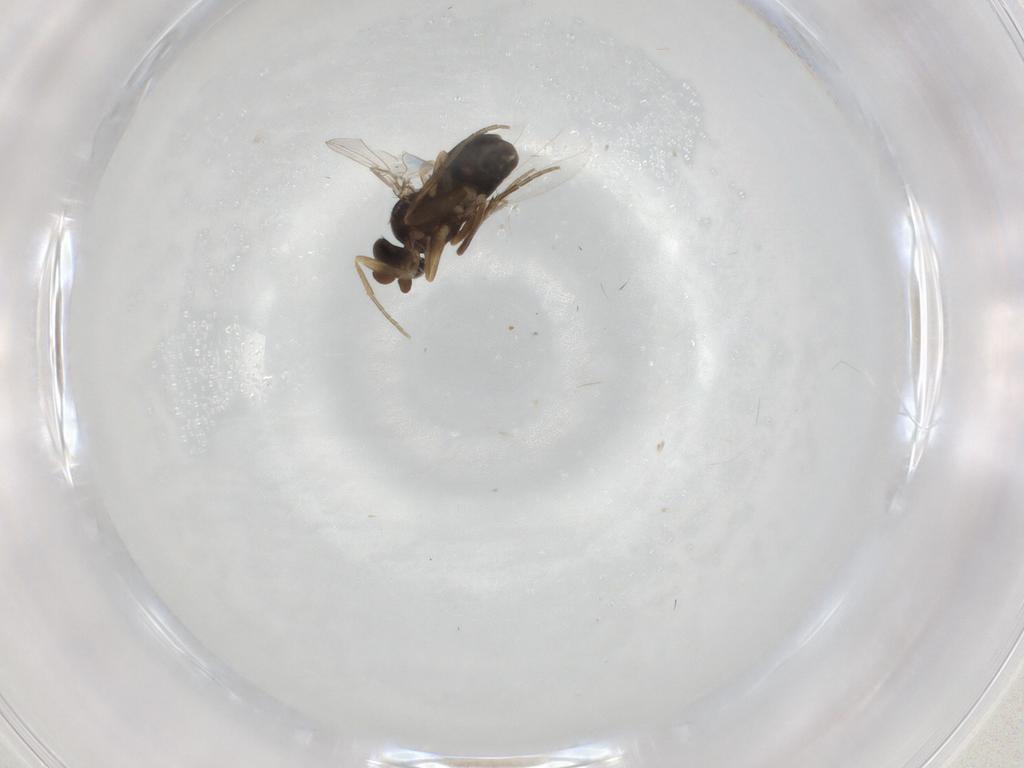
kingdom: Animalia
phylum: Arthropoda
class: Insecta
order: Diptera
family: Phoridae
